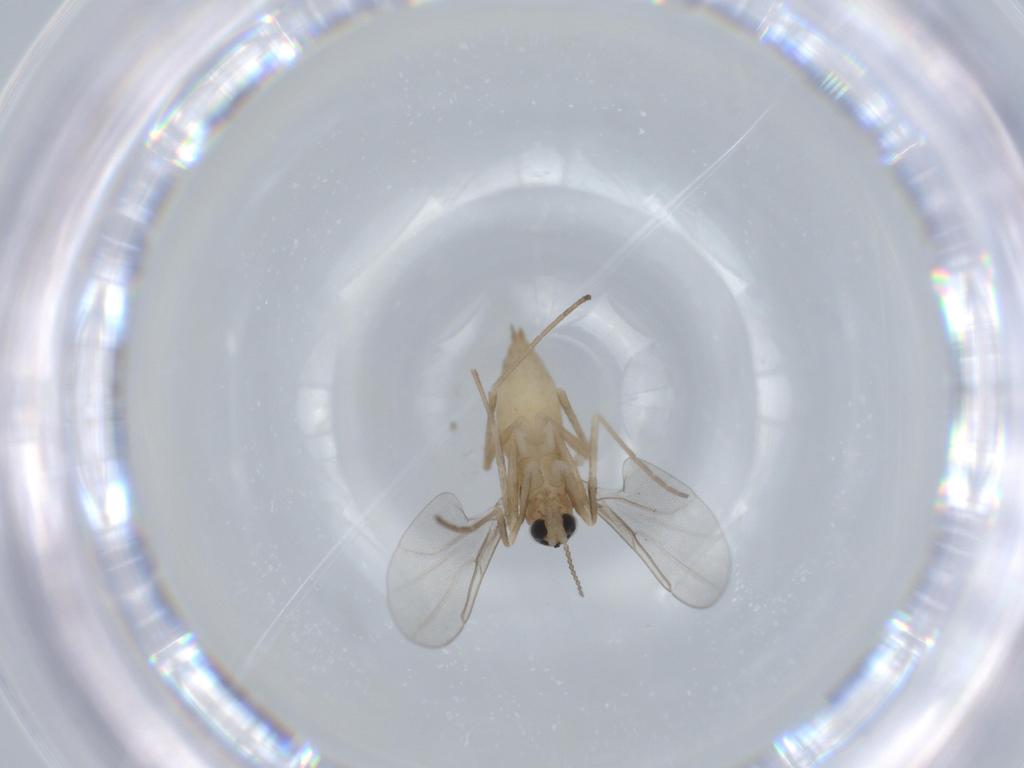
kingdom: Animalia
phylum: Arthropoda
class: Insecta
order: Diptera
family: Cecidomyiidae
